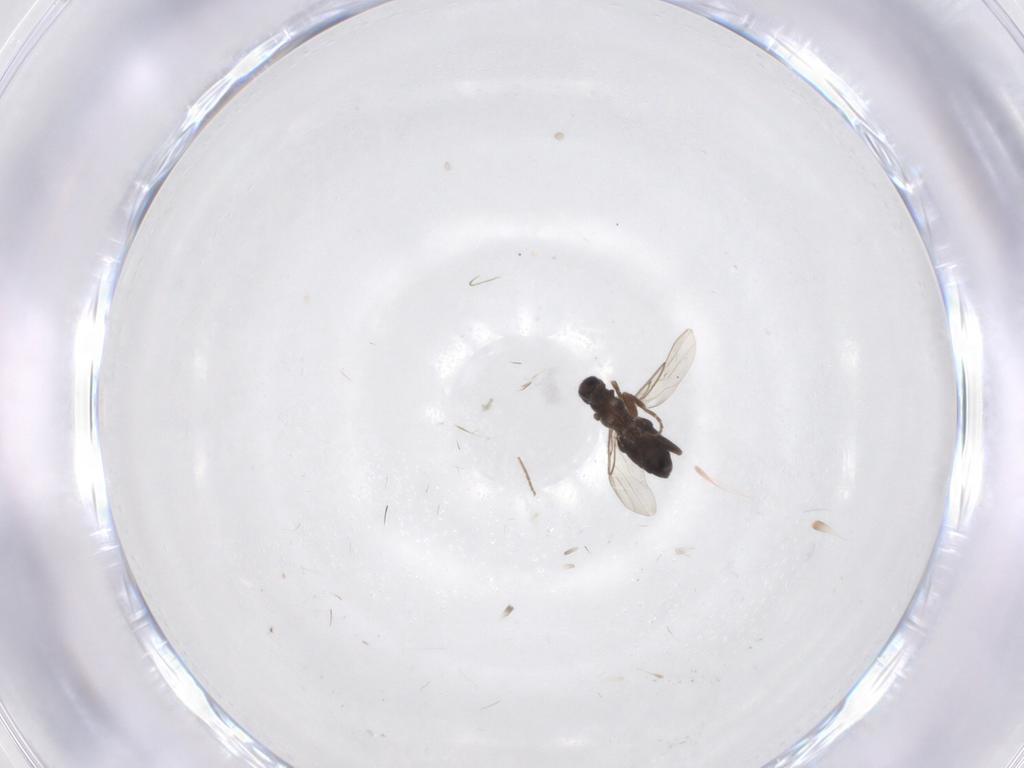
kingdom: Animalia
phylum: Arthropoda
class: Insecta
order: Diptera
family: Phoridae
